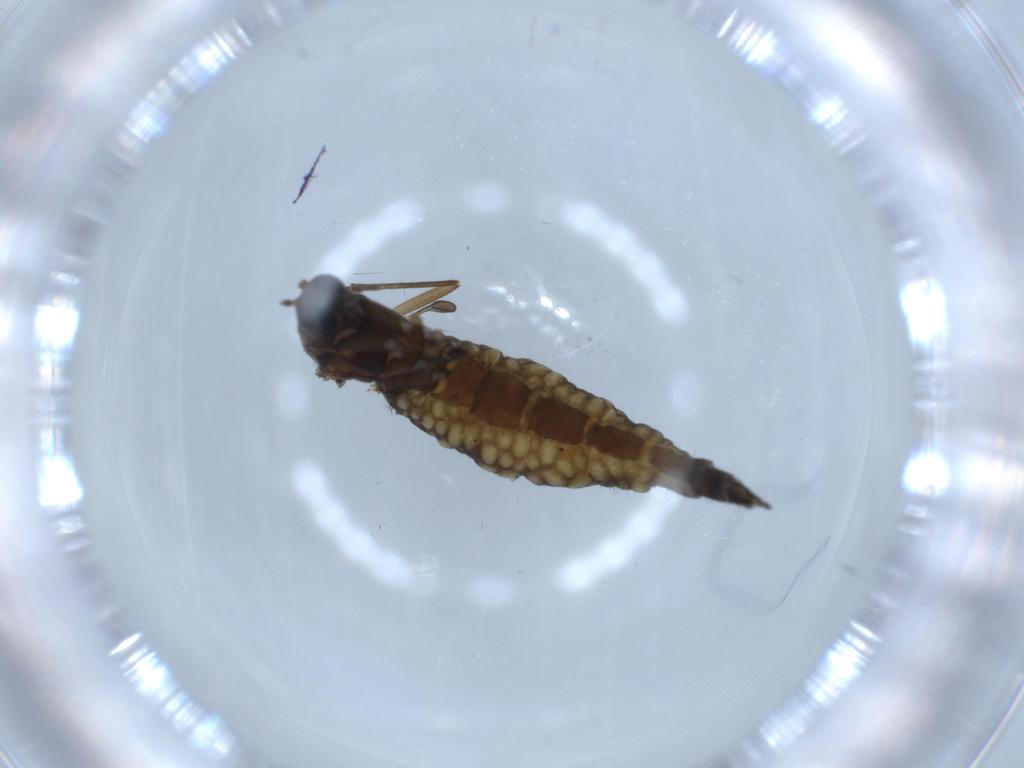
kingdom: Animalia
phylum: Arthropoda
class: Insecta
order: Diptera
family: Sciaridae
